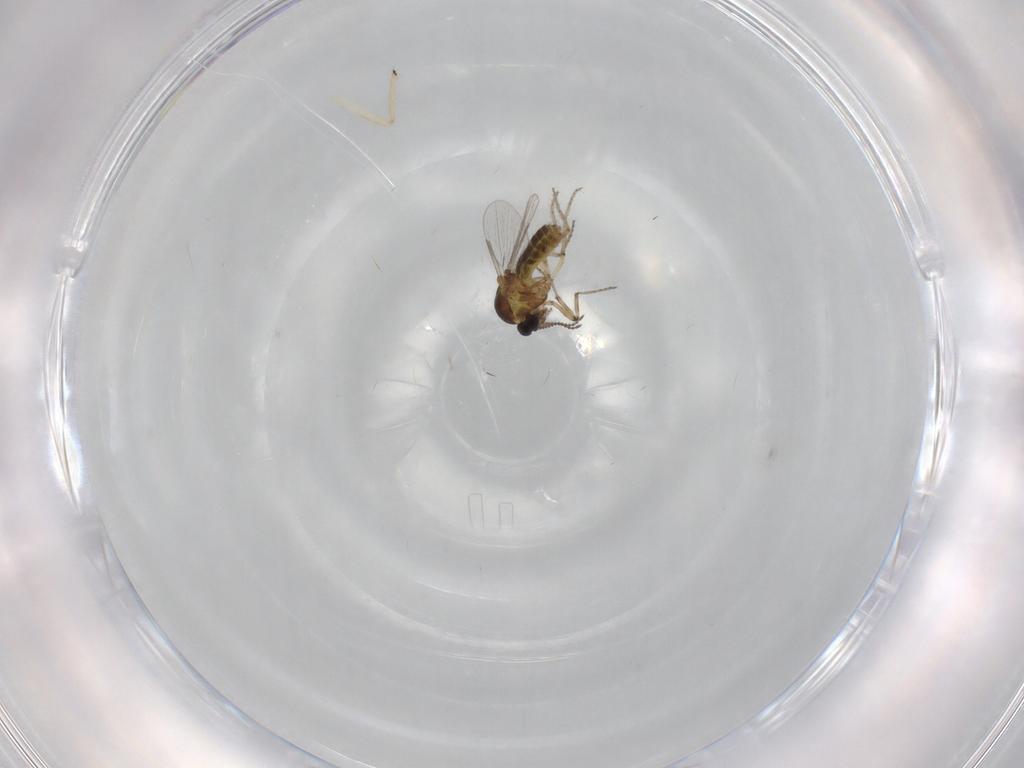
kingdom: Animalia
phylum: Arthropoda
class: Insecta
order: Diptera
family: Ceratopogonidae
